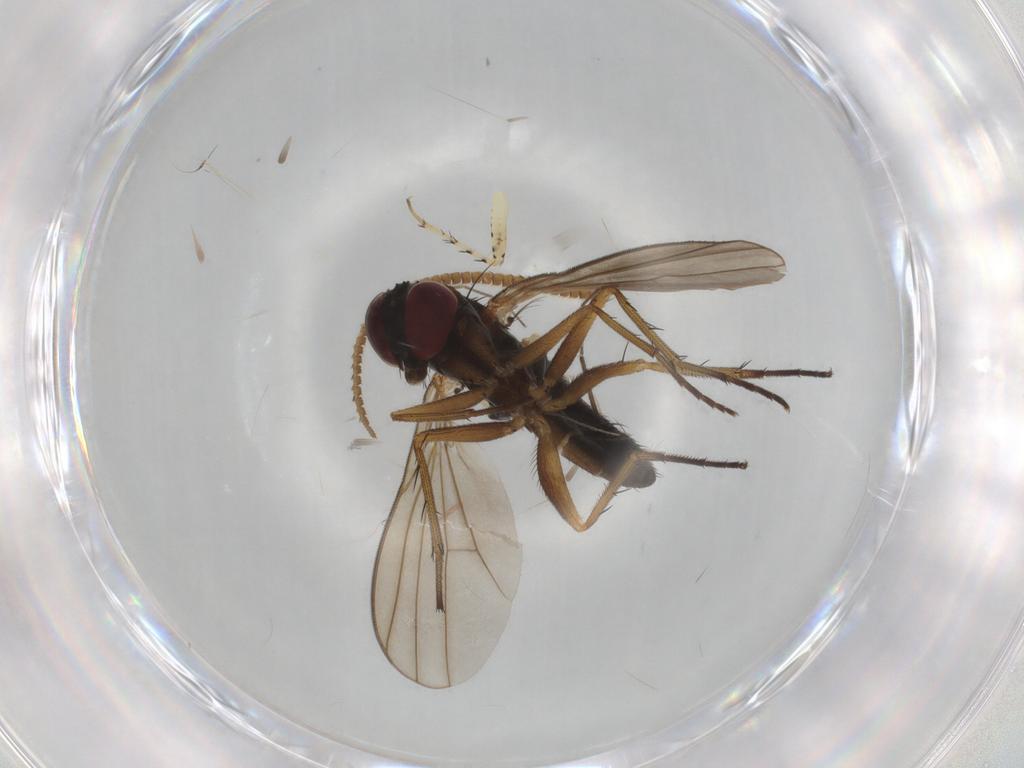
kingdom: Animalia
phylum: Arthropoda
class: Insecta
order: Diptera
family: Dolichopodidae
